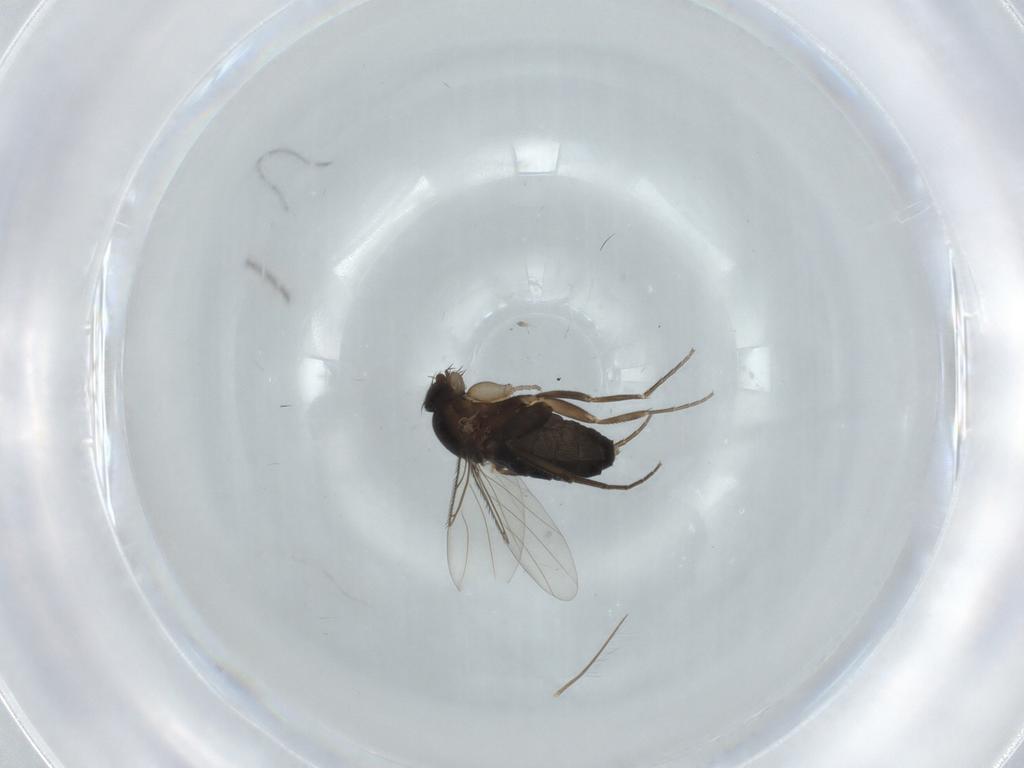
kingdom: Animalia
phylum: Arthropoda
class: Insecta
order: Diptera
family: Phoridae
